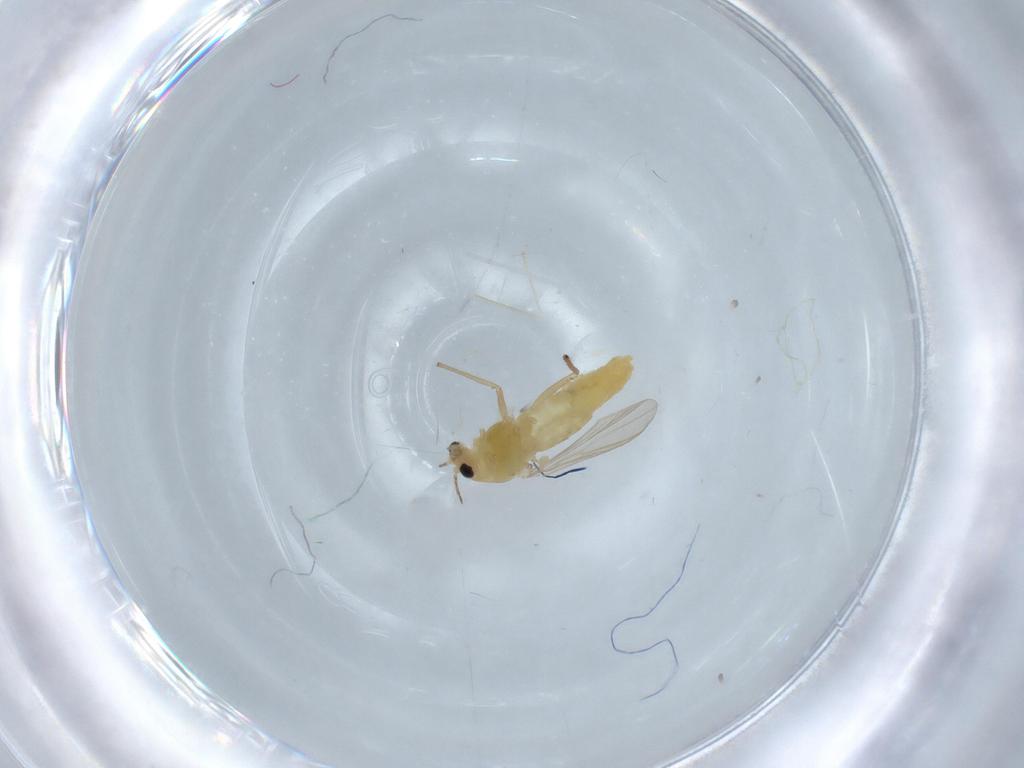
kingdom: Animalia
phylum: Arthropoda
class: Insecta
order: Diptera
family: Chironomidae
